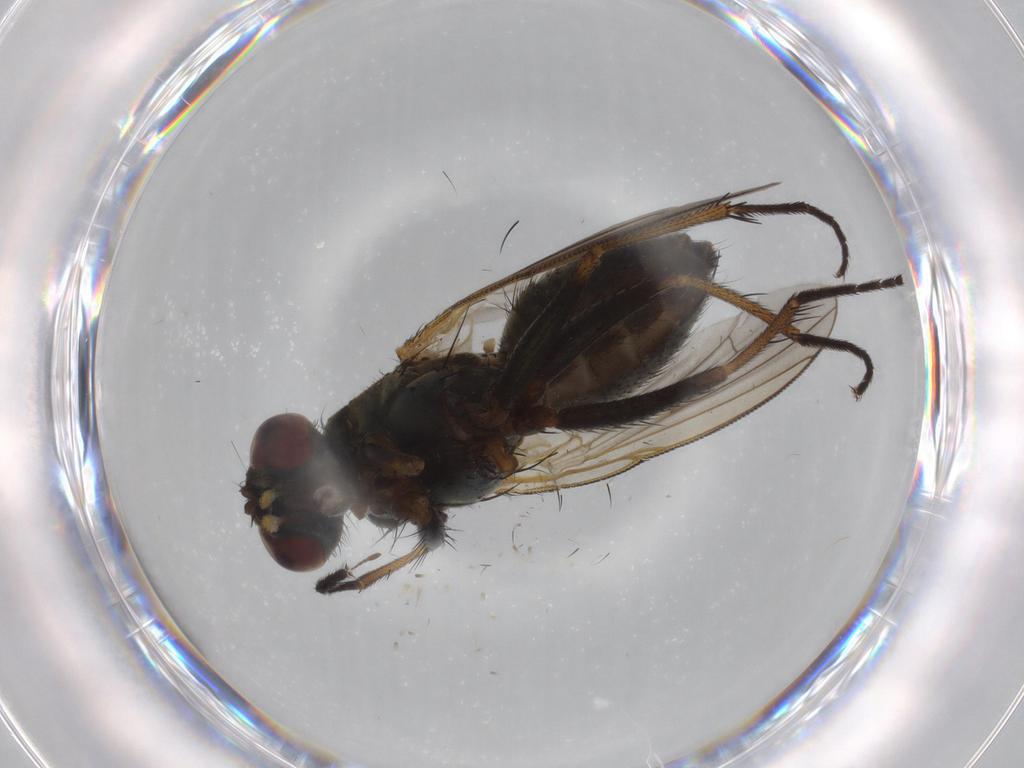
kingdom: Animalia
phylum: Arthropoda
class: Insecta
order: Diptera
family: Muscidae
